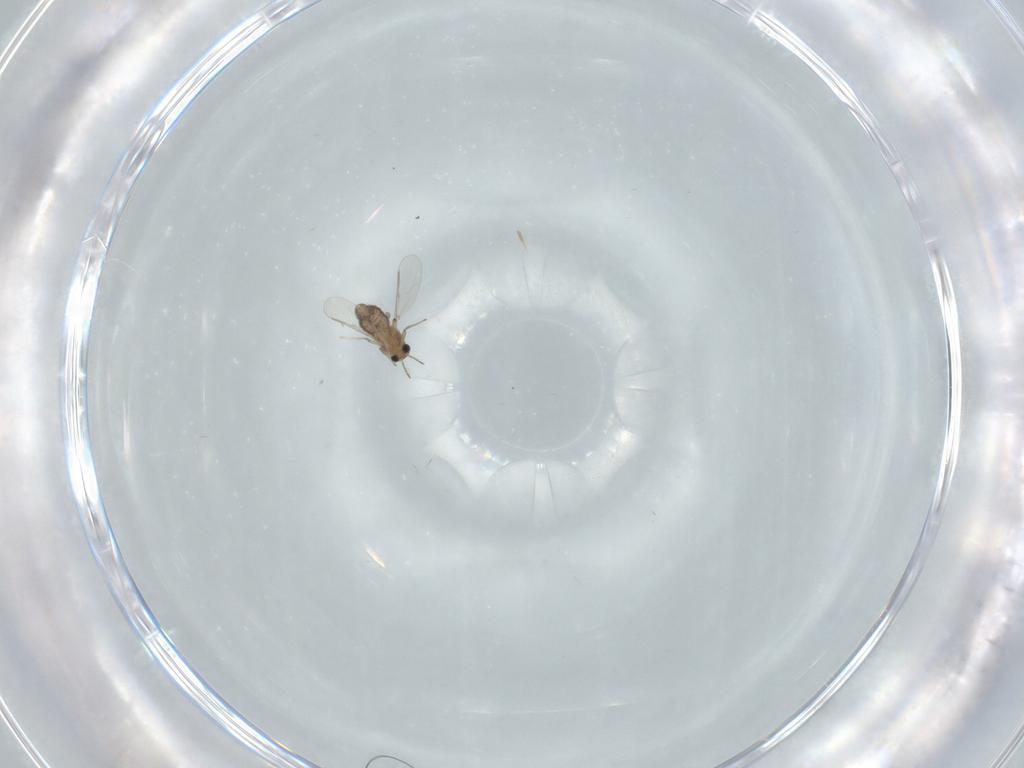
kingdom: Animalia
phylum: Arthropoda
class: Insecta
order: Diptera
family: Chironomidae
